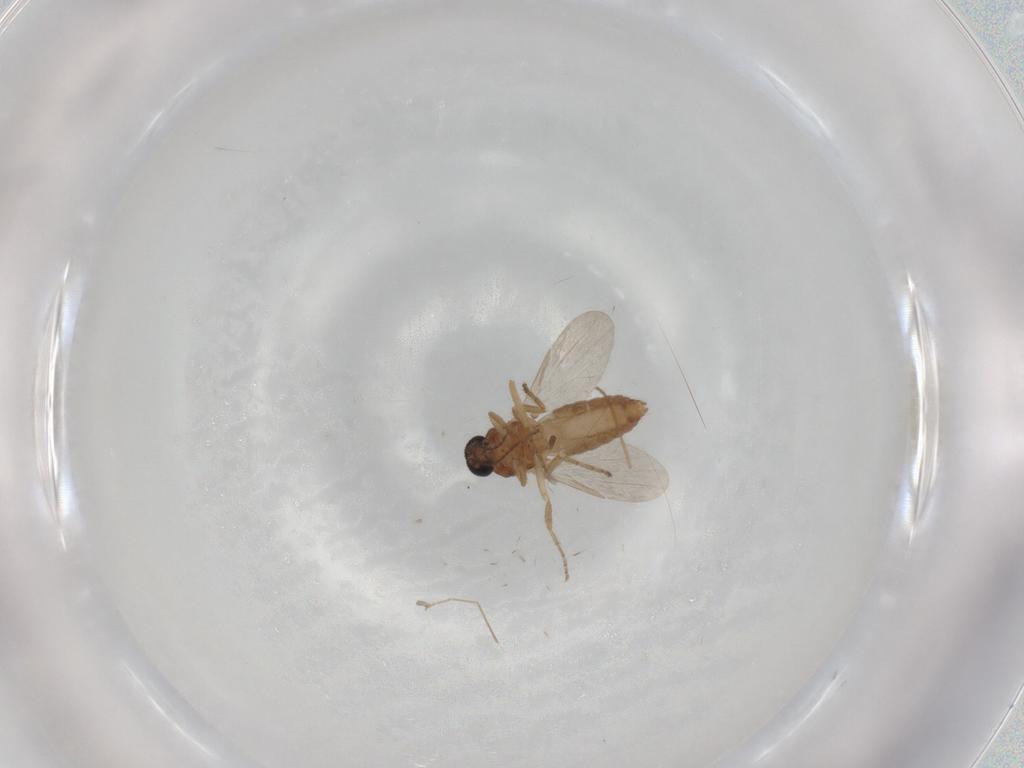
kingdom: Animalia
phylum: Arthropoda
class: Insecta
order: Diptera
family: Ceratopogonidae
